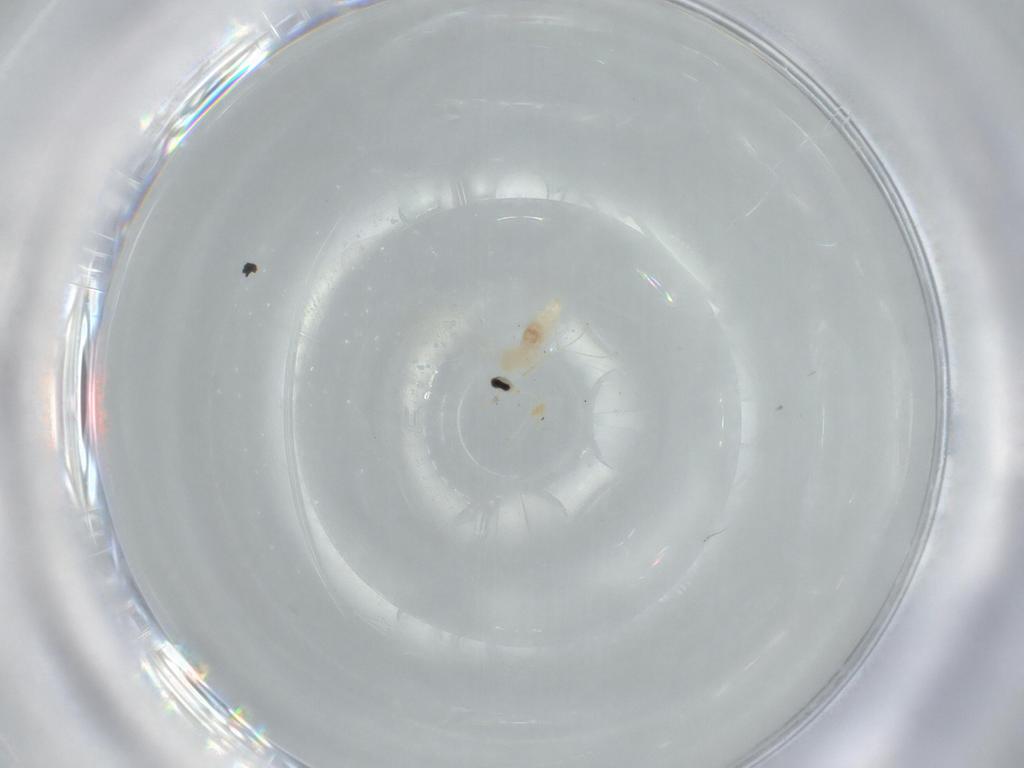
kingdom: Animalia
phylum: Arthropoda
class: Insecta
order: Diptera
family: Cecidomyiidae
